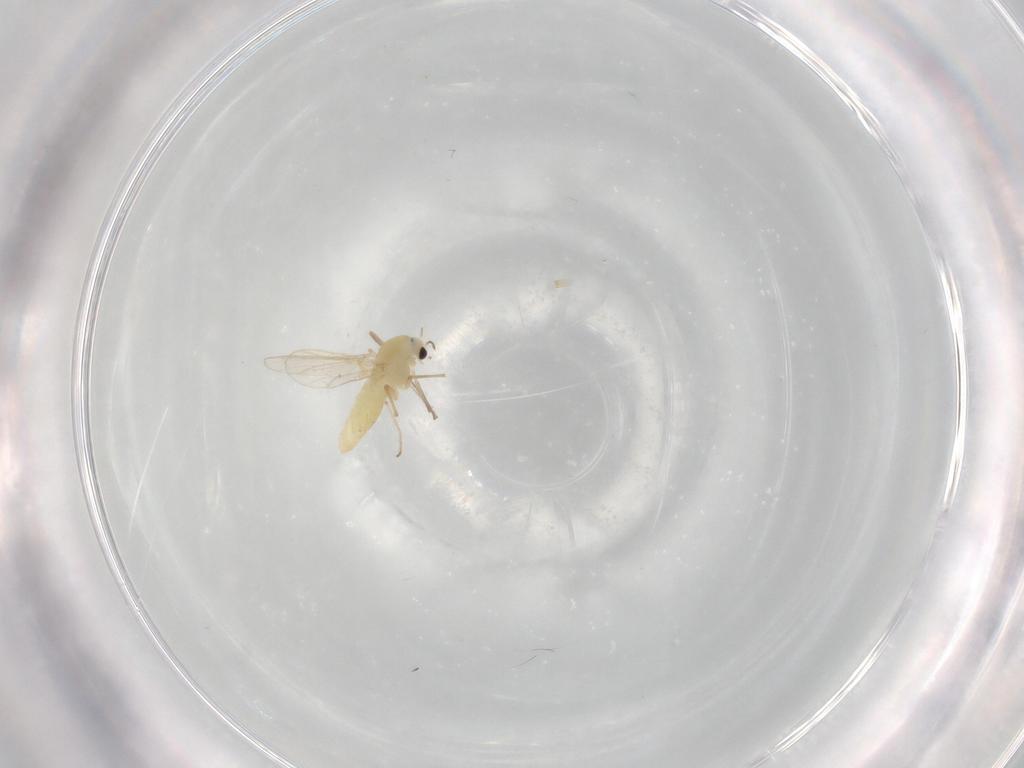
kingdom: Animalia
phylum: Arthropoda
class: Insecta
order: Diptera
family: Chironomidae
